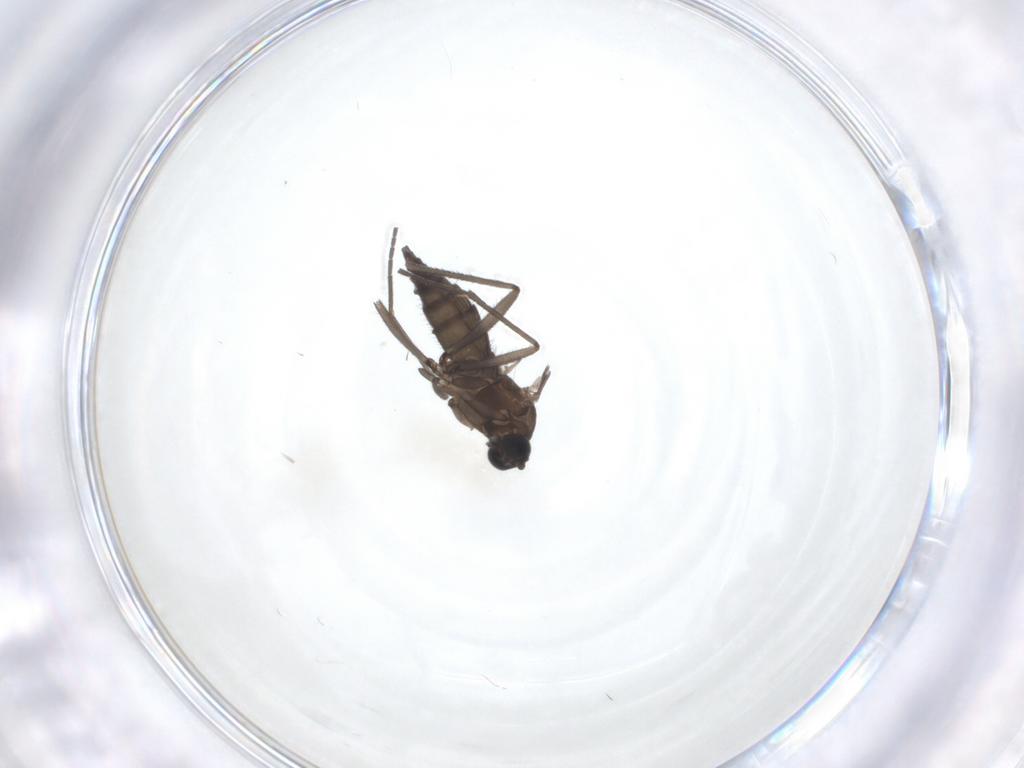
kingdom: Animalia
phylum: Arthropoda
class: Insecta
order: Diptera
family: Sciaridae
